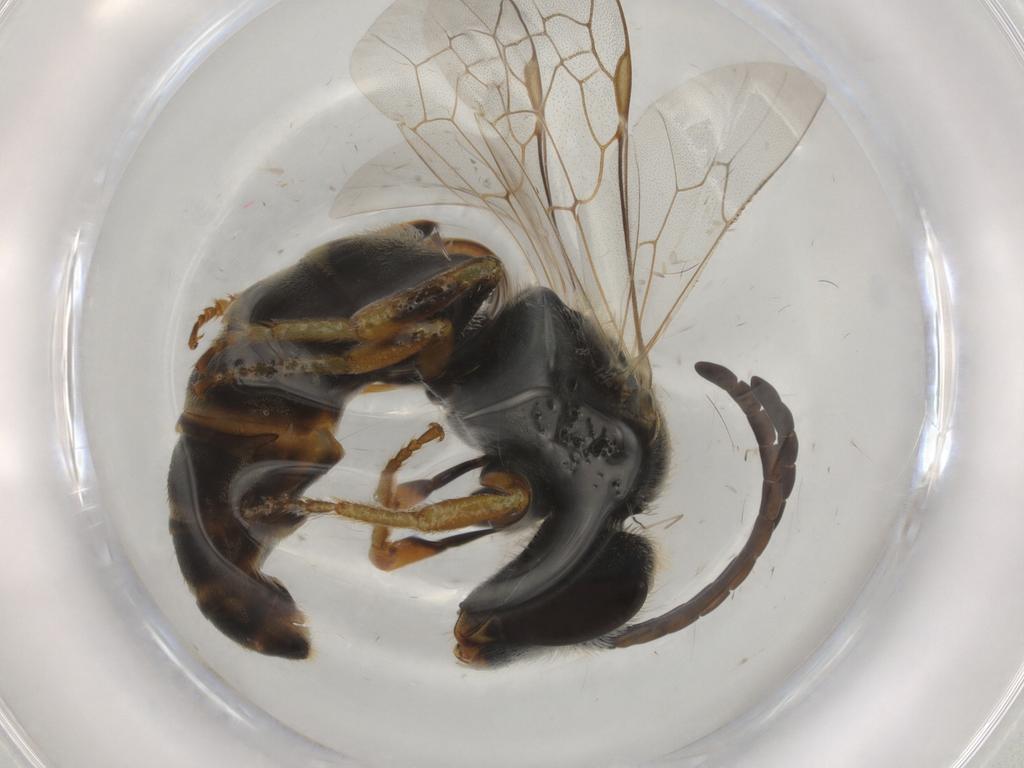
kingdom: Animalia
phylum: Arthropoda
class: Insecta
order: Hymenoptera
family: Halictidae
